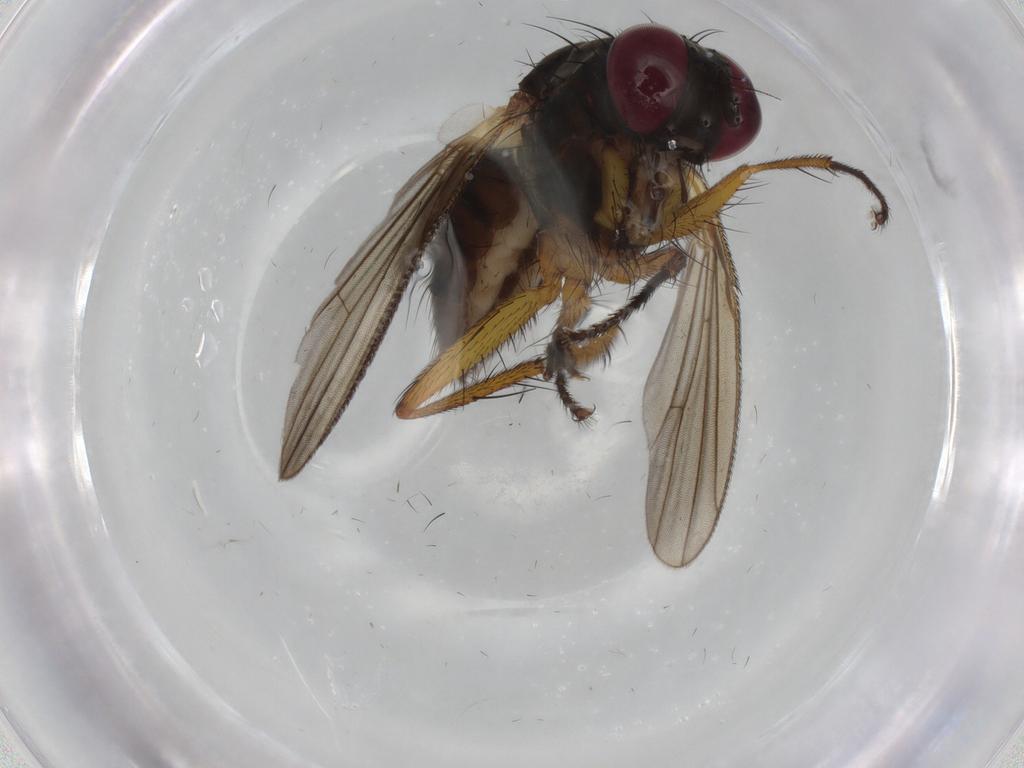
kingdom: Animalia
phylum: Arthropoda
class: Insecta
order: Diptera
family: Muscidae
